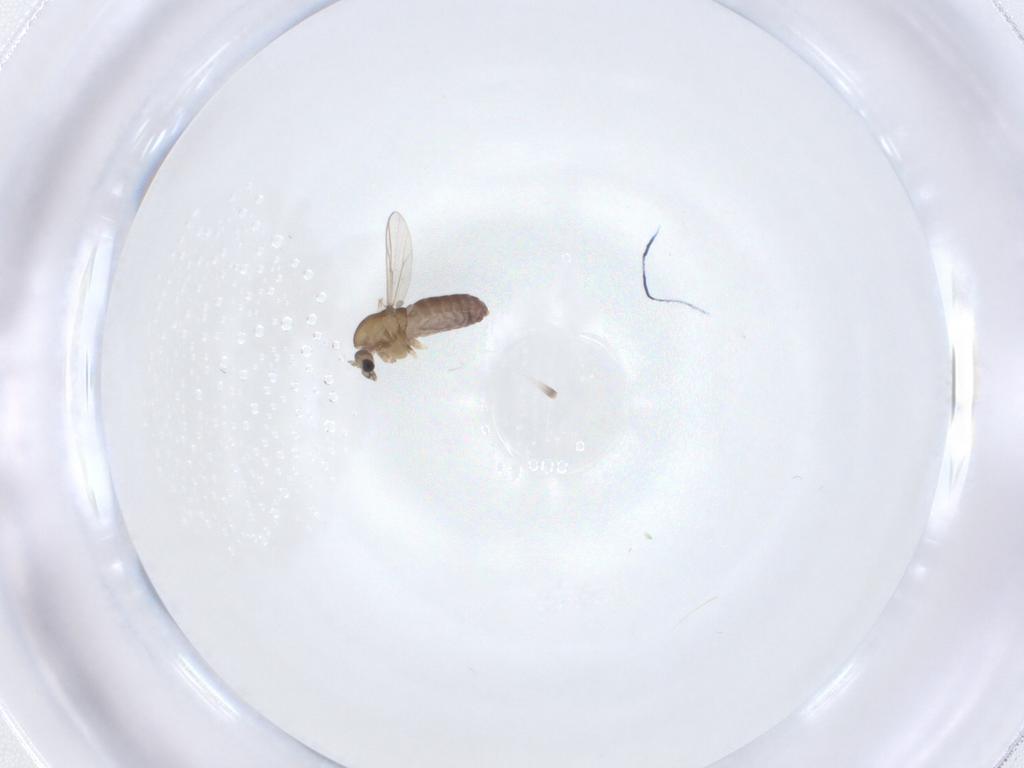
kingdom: Animalia
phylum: Arthropoda
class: Insecta
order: Diptera
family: Chironomidae
